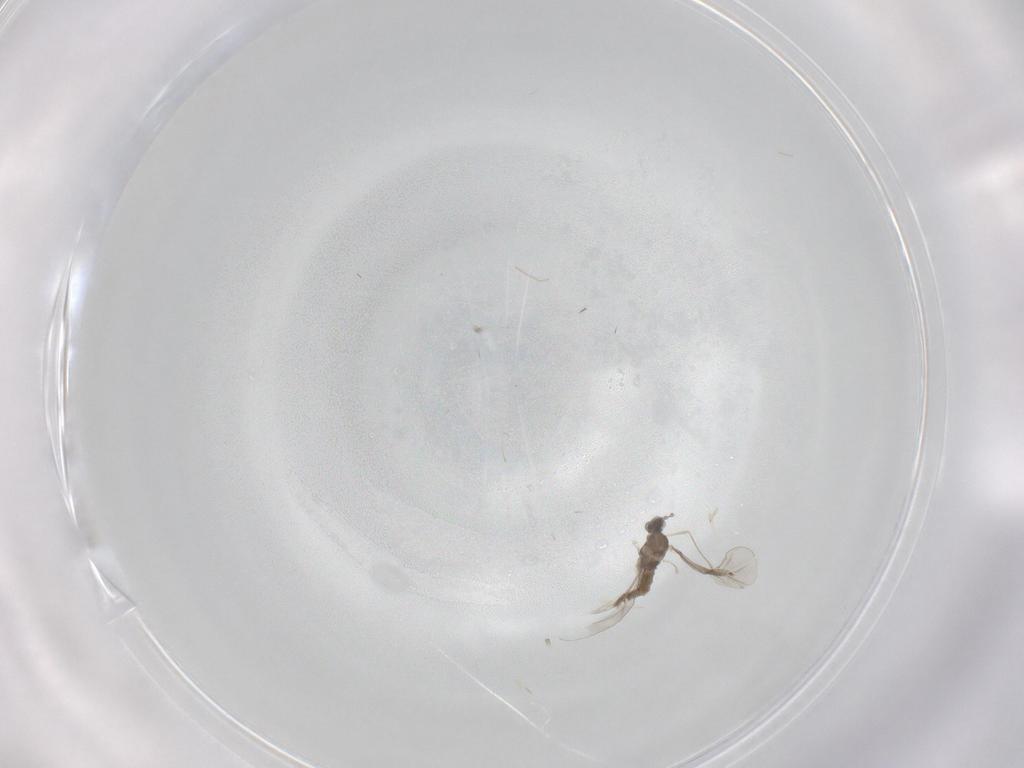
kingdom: Animalia
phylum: Arthropoda
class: Insecta
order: Diptera
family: Cecidomyiidae
